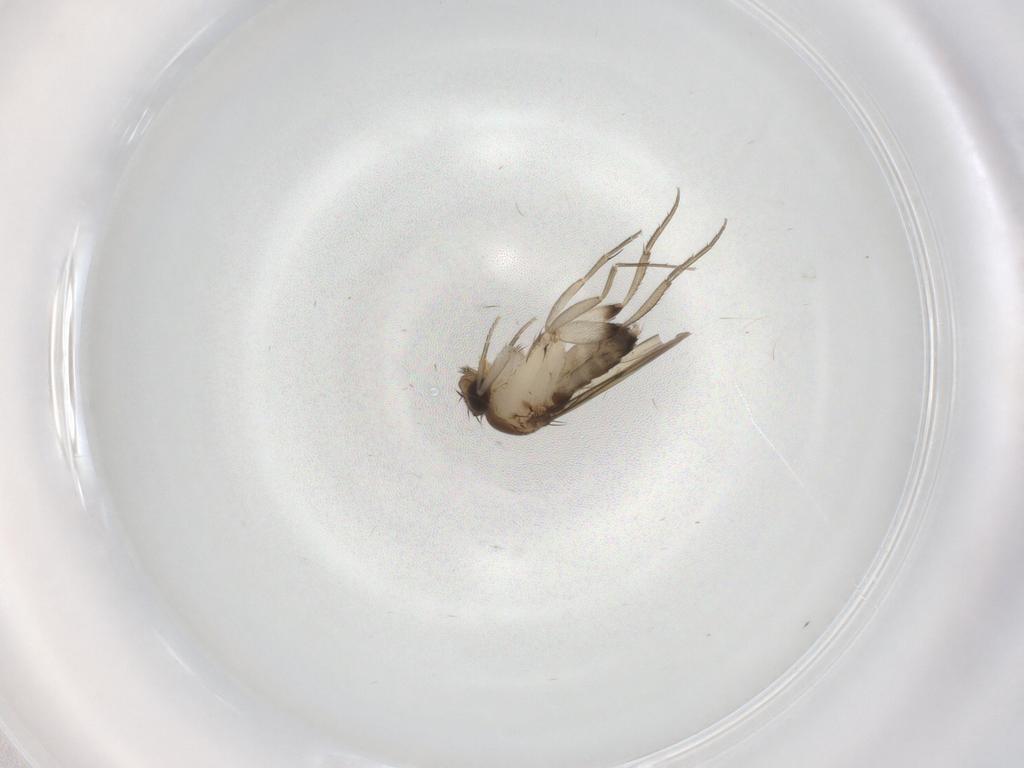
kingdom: Animalia
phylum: Arthropoda
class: Insecta
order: Diptera
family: Phoridae
